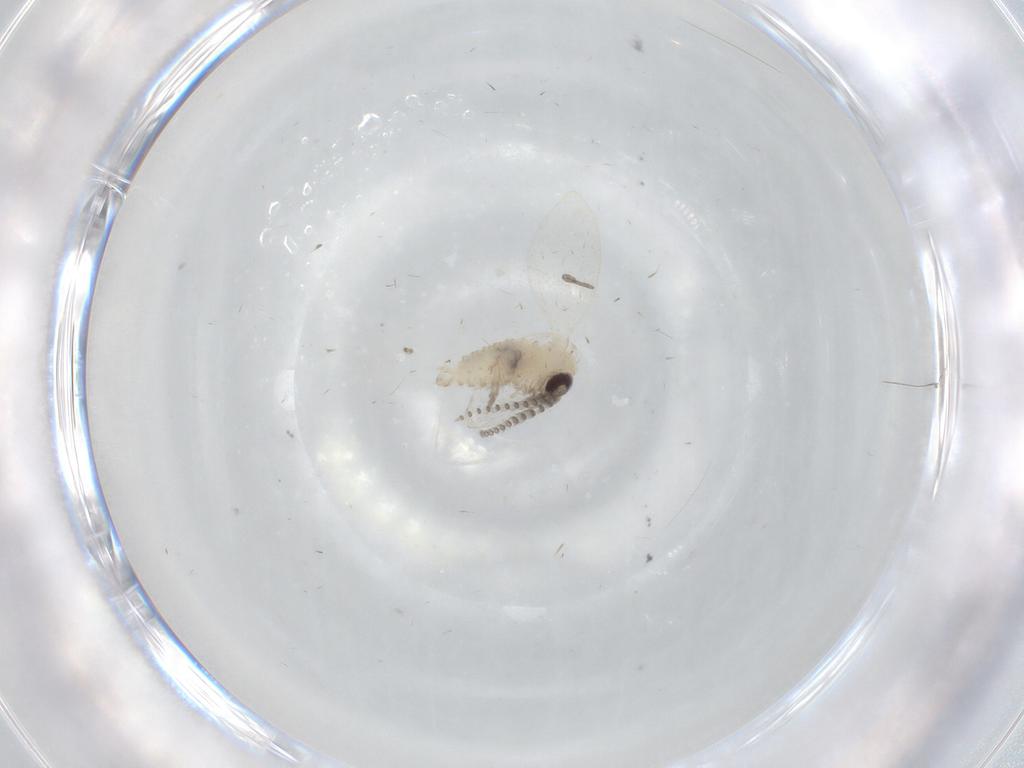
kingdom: Animalia
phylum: Arthropoda
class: Insecta
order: Diptera
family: Psychodidae
